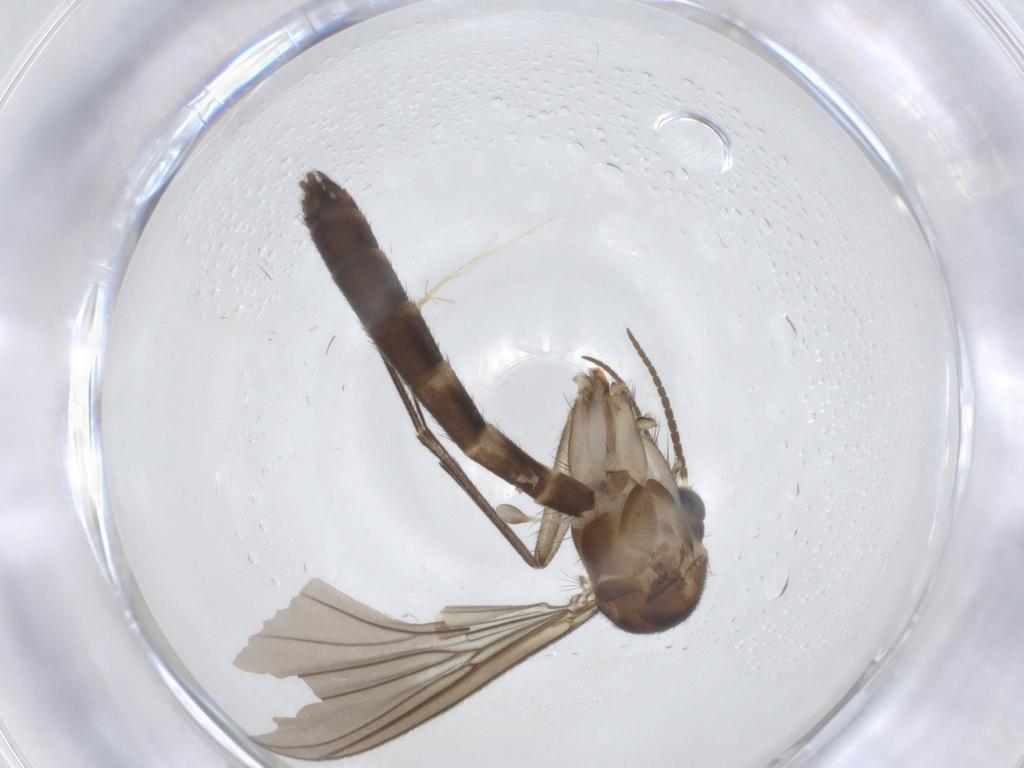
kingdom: Animalia
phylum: Arthropoda
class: Insecta
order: Diptera
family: Chironomidae
